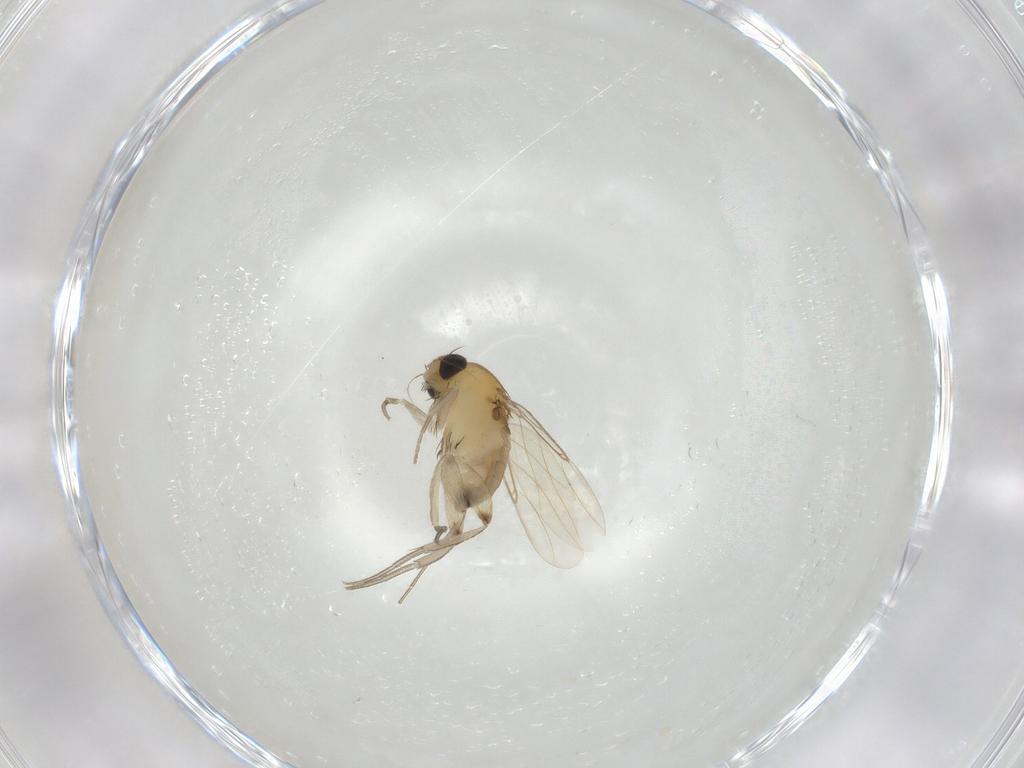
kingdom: Animalia
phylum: Arthropoda
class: Insecta
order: Diptera
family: Phoridae
